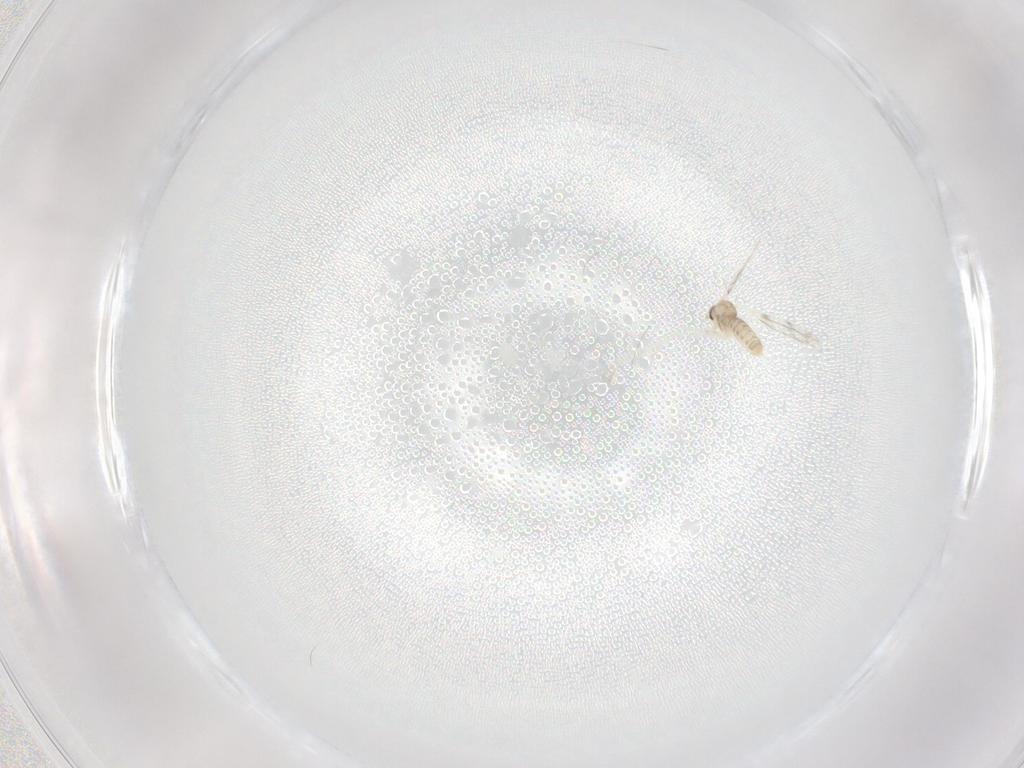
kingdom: Animalia
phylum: Arthropoda
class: Insecta
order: Diptera
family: Cecidomyiidae
